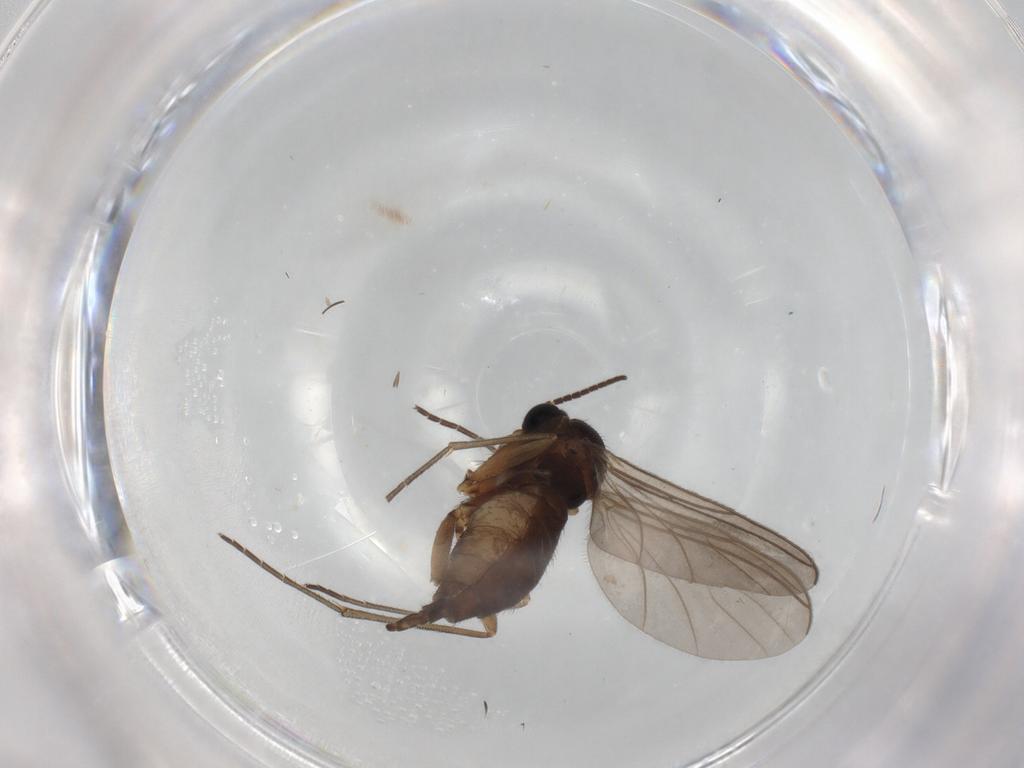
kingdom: Animalia
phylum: Arthropoda
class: Insecta
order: Diptera
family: Sciaridae
